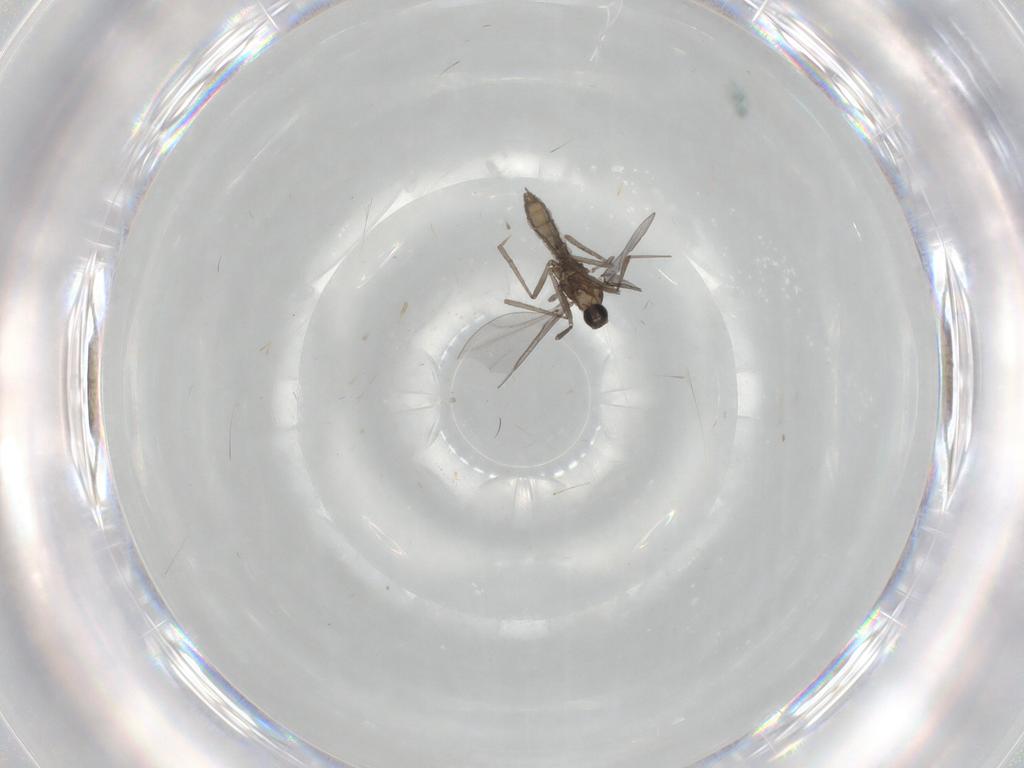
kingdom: Animalia
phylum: Arthropoda
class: Insecta
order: Diptera
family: Cecidomyiidae
